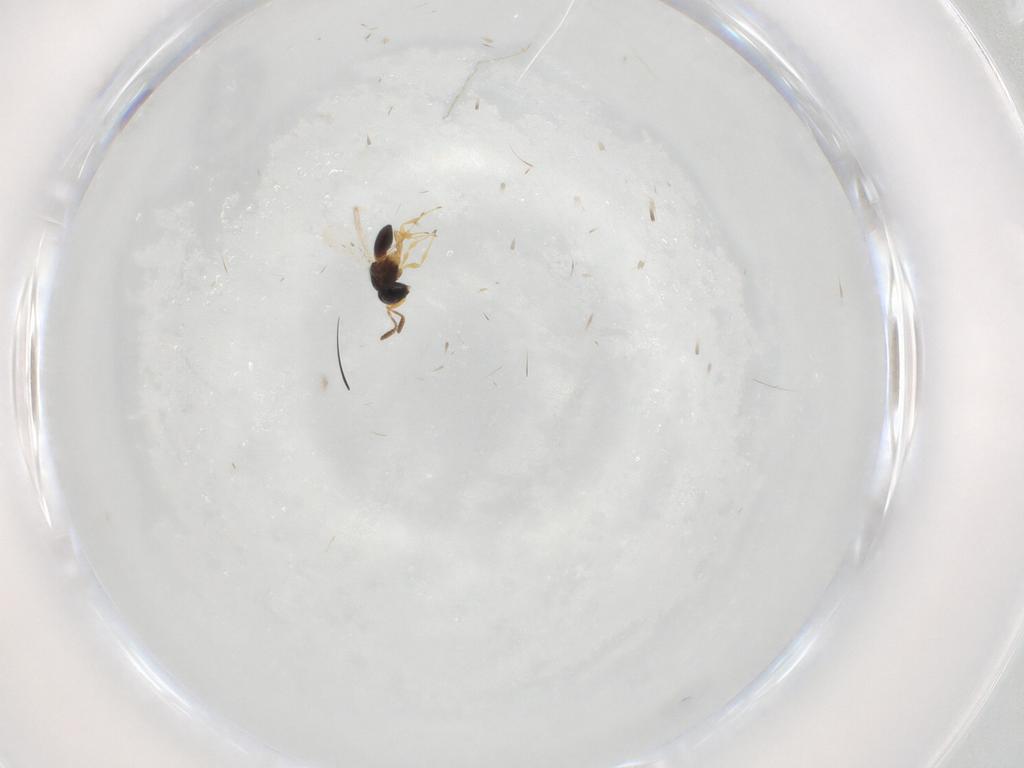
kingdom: Animalia
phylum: Arthropoda
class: Insecta
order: Hymenoptera
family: Scelionidae
